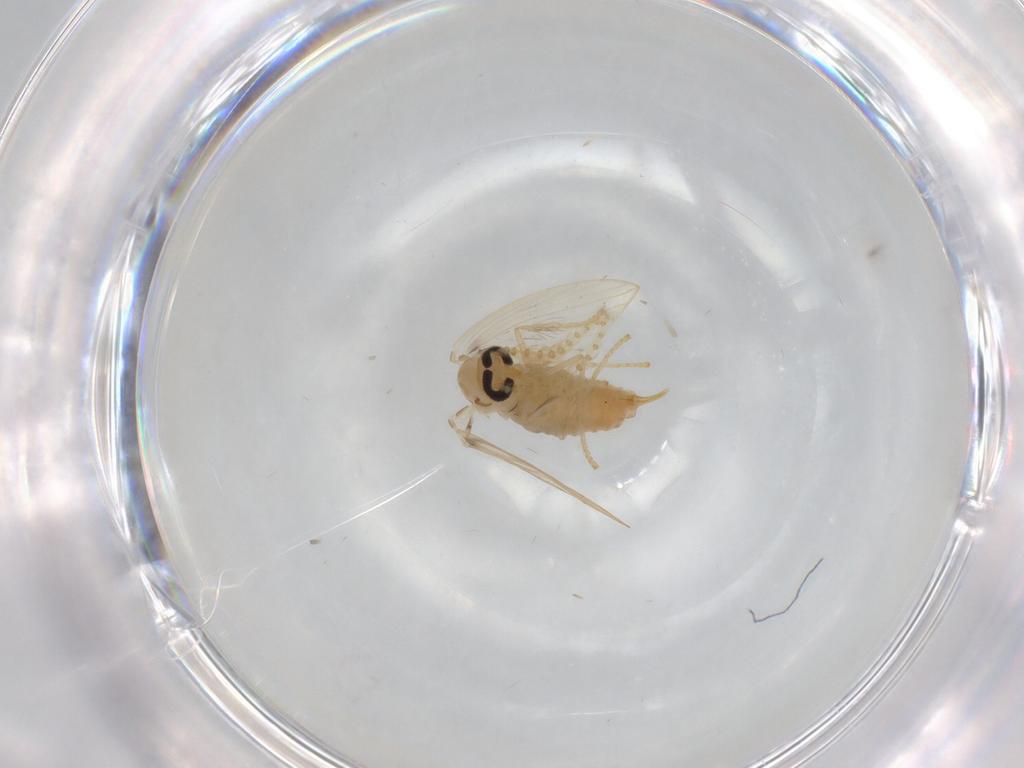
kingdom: Animalia
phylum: Arthropoda
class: Insecta
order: Diptera
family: Psychodidae
